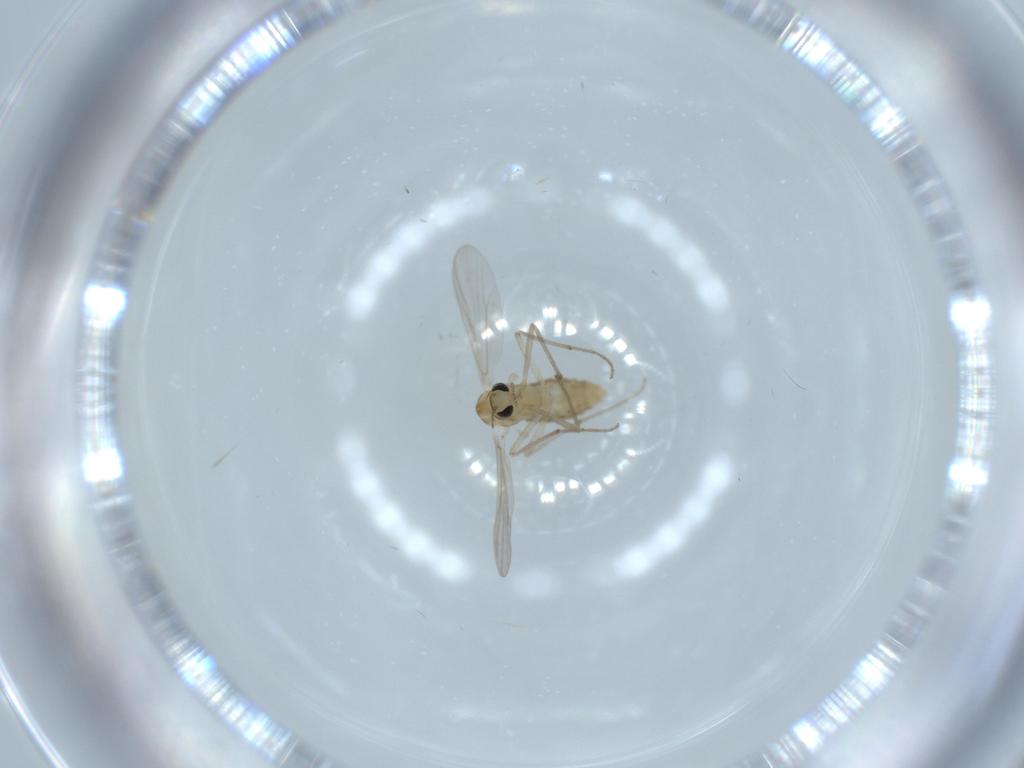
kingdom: Animalia
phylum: Arthropoda
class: Insecta
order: Diptera
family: Chironomidae
